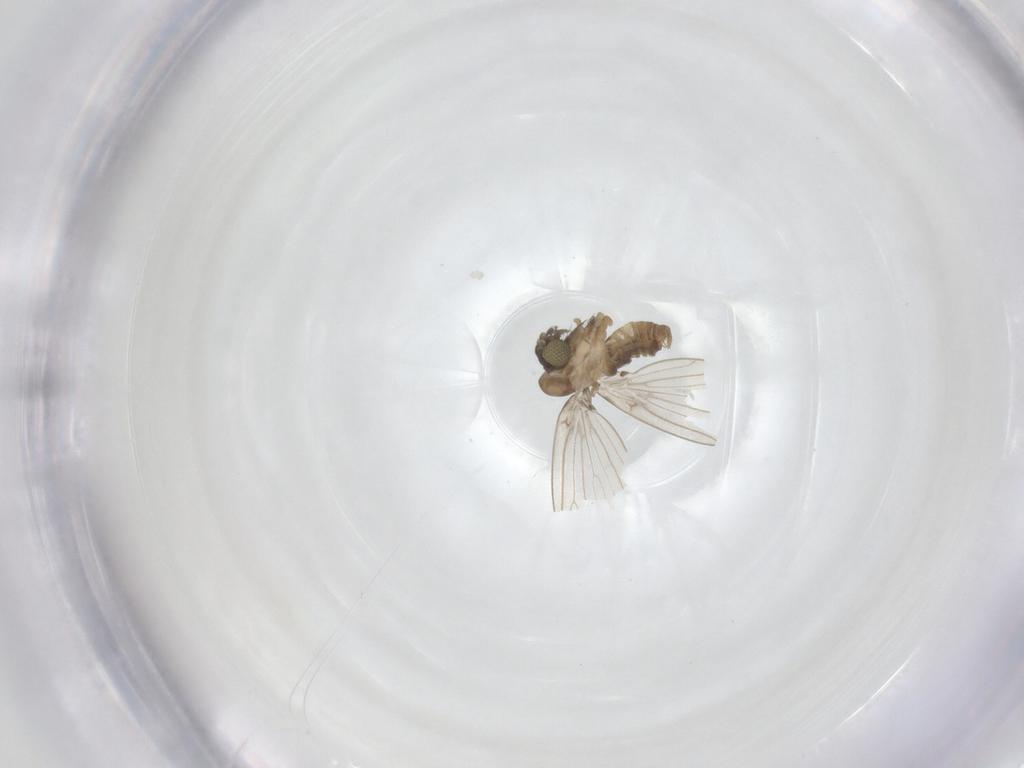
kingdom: Animalia
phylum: Arthropoda
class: Insecta
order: Diptera
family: Psychodidae
